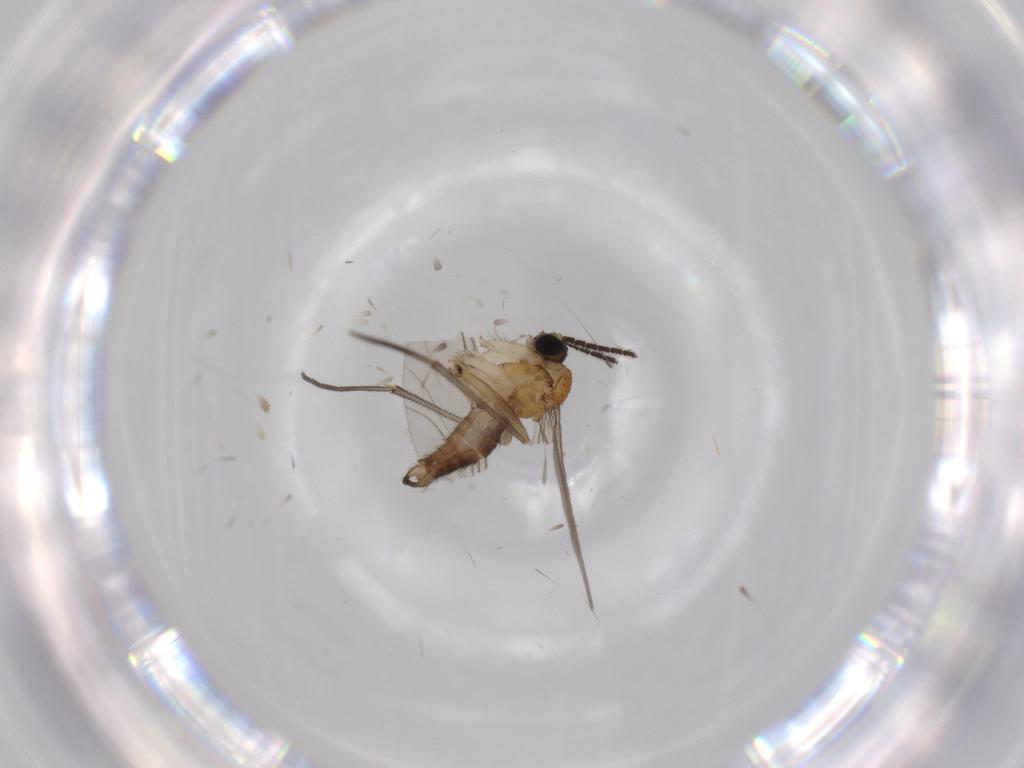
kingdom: Animalia
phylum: Arthropoda
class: Insecta
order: Diptera
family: Sciaridae
